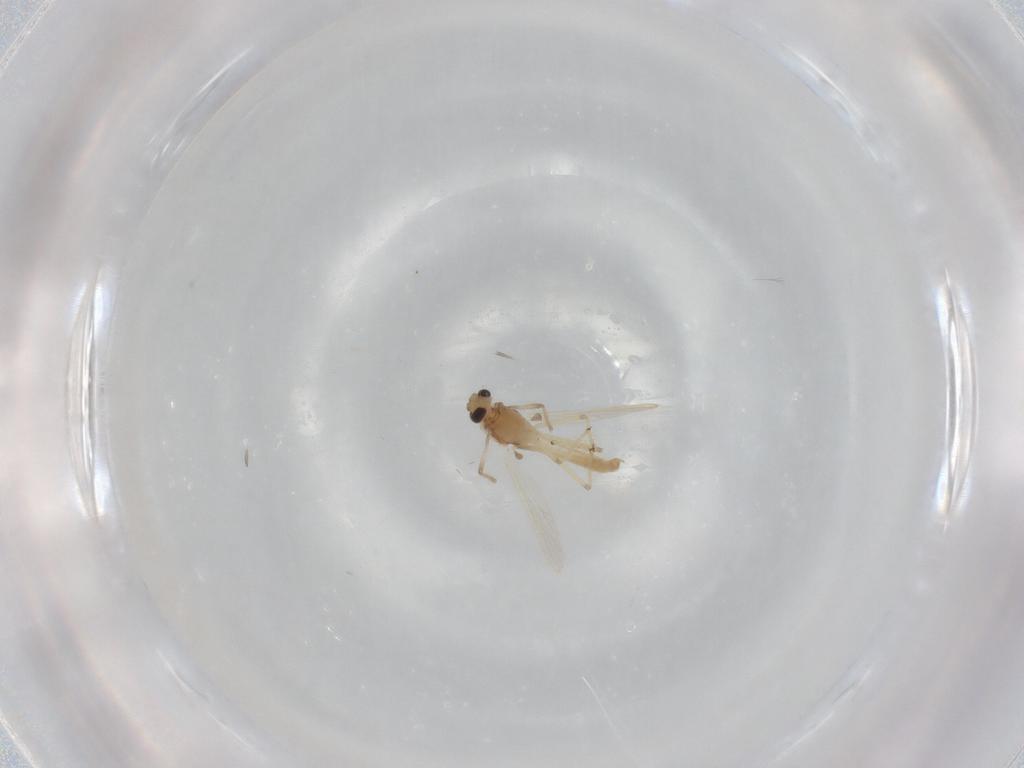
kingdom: Animalia
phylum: Arthropoda
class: Insecta
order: Diptera
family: Chironomidae
